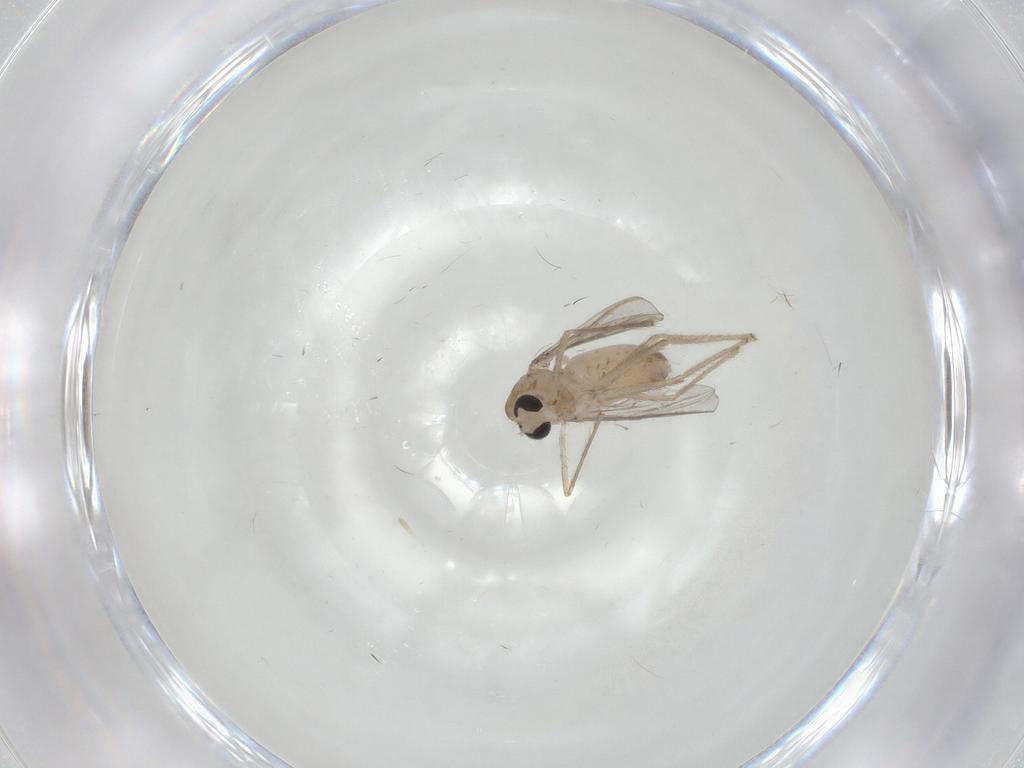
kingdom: Animalia
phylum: Arthropoda
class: Insecta
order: Diptera
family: Chironomidae
